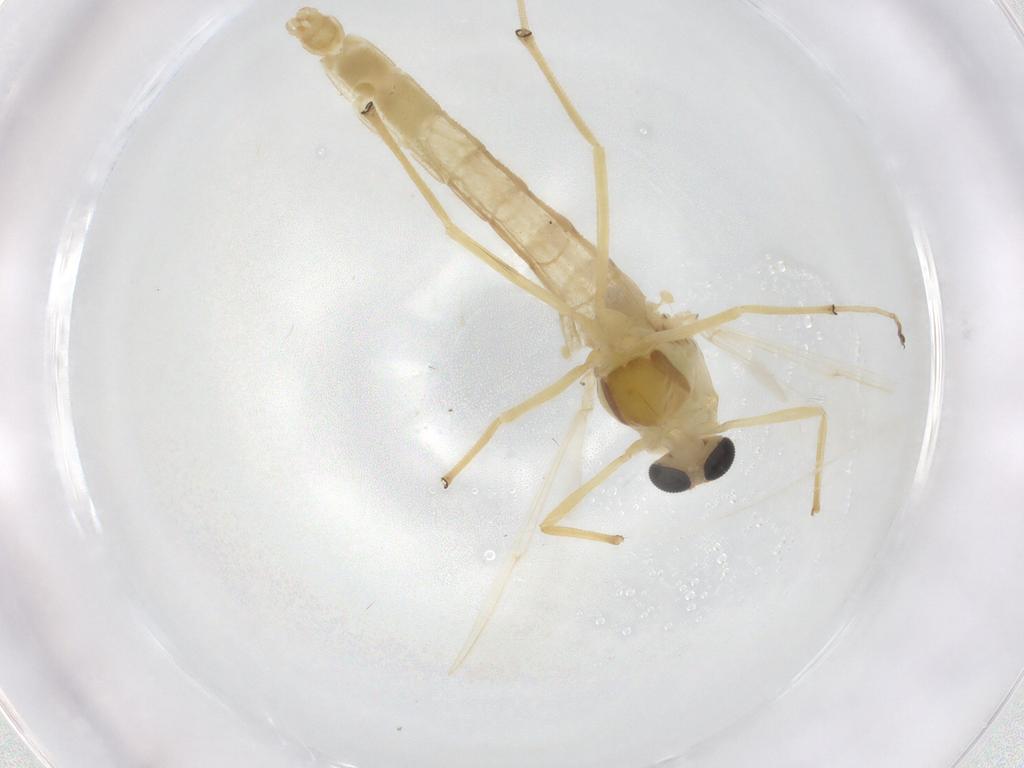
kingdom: Animalia
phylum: Arthropoda
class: Insecta
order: Diptera
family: Chironomidae
